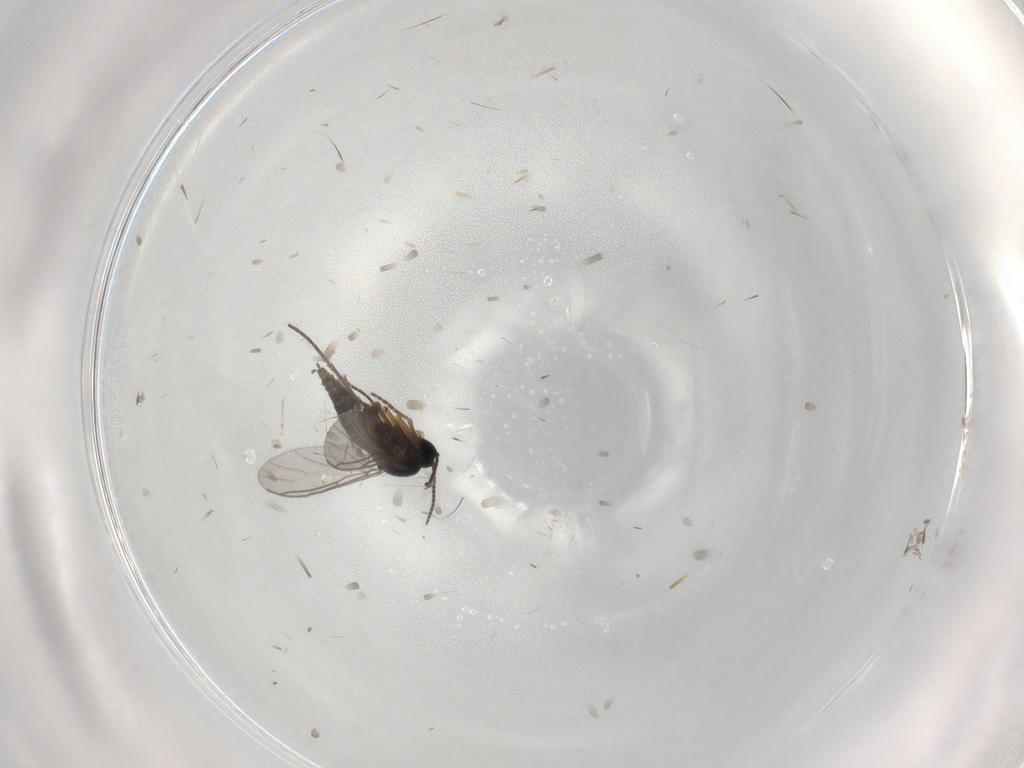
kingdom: Animalia
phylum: Arthropoda
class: Insecta
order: Diptera
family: Sciaridae
